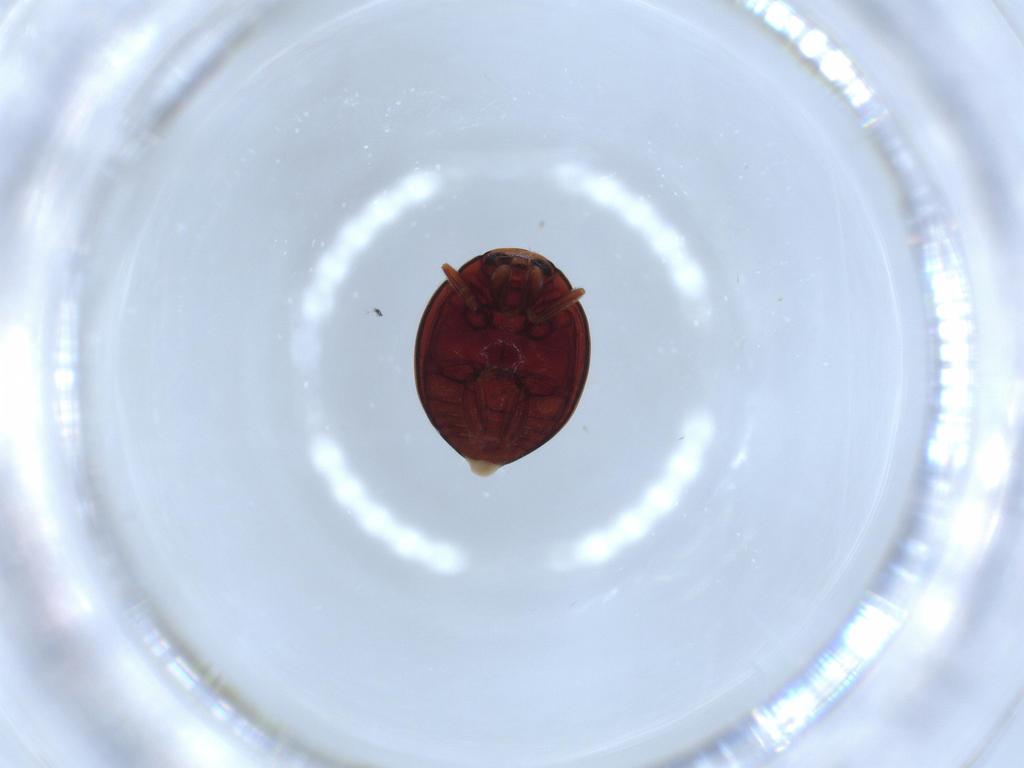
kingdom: Animalia
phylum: Arthropoda
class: Insecta
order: Coleoptera
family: Coccinellidae
